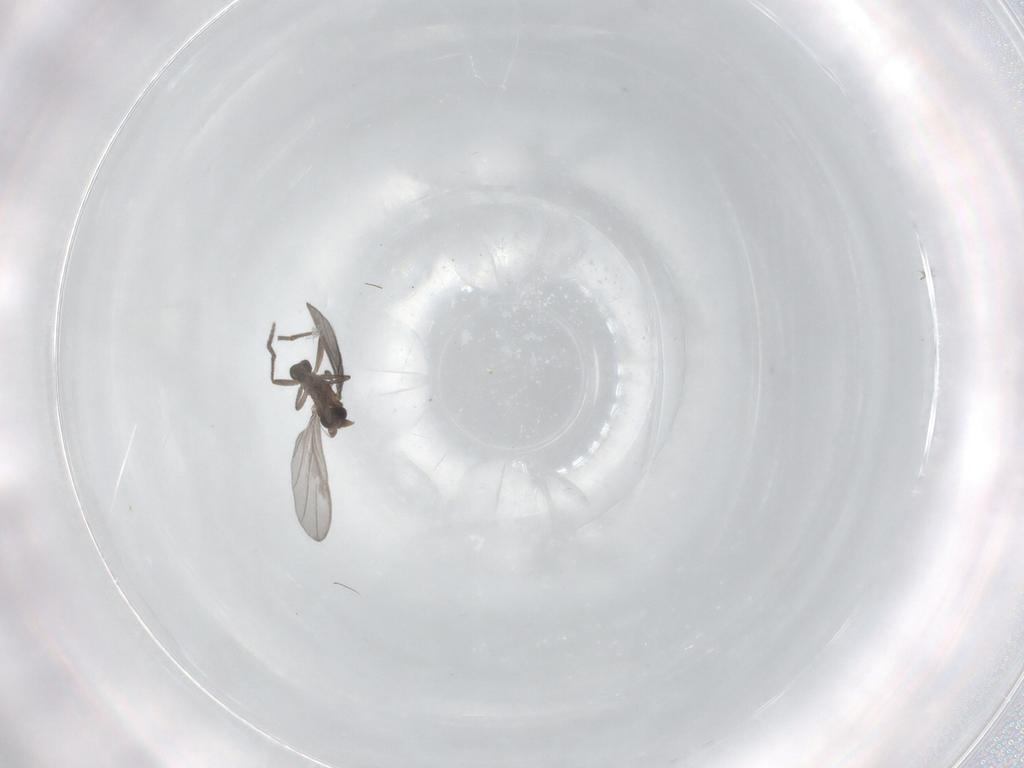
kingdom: Animalia
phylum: Arthropoda
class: Insecta
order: Diptera
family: Phoridae
